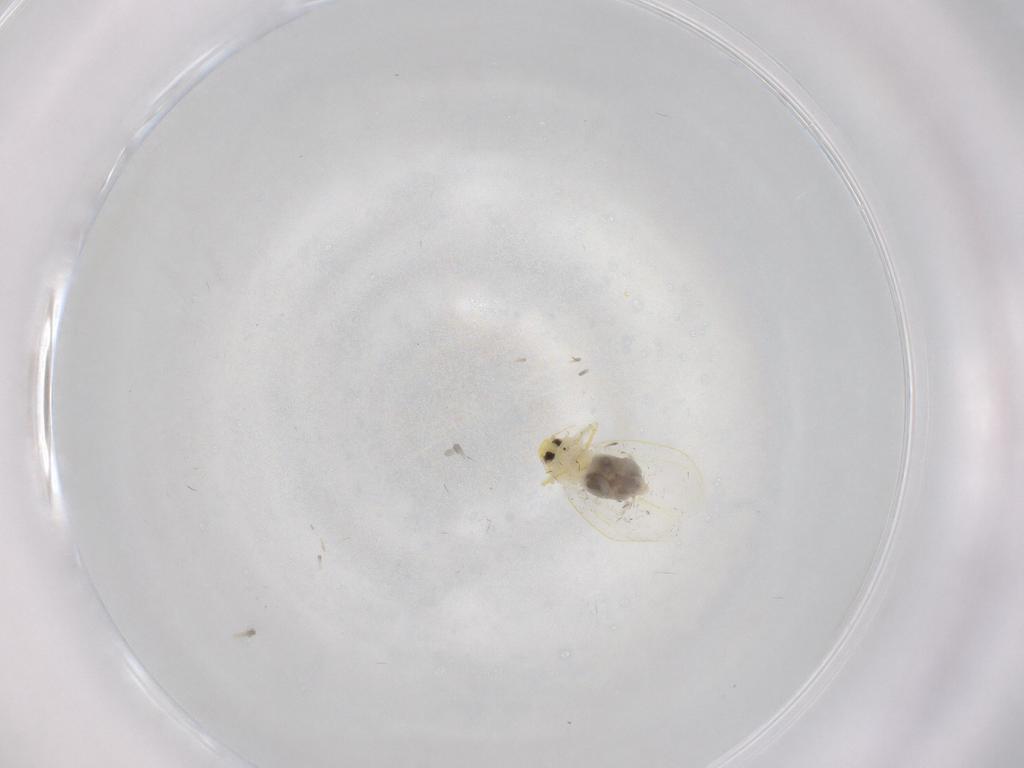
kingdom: Animalia
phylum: Arthropoda
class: Insecta
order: Hemiptera
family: Aleyrodidae
